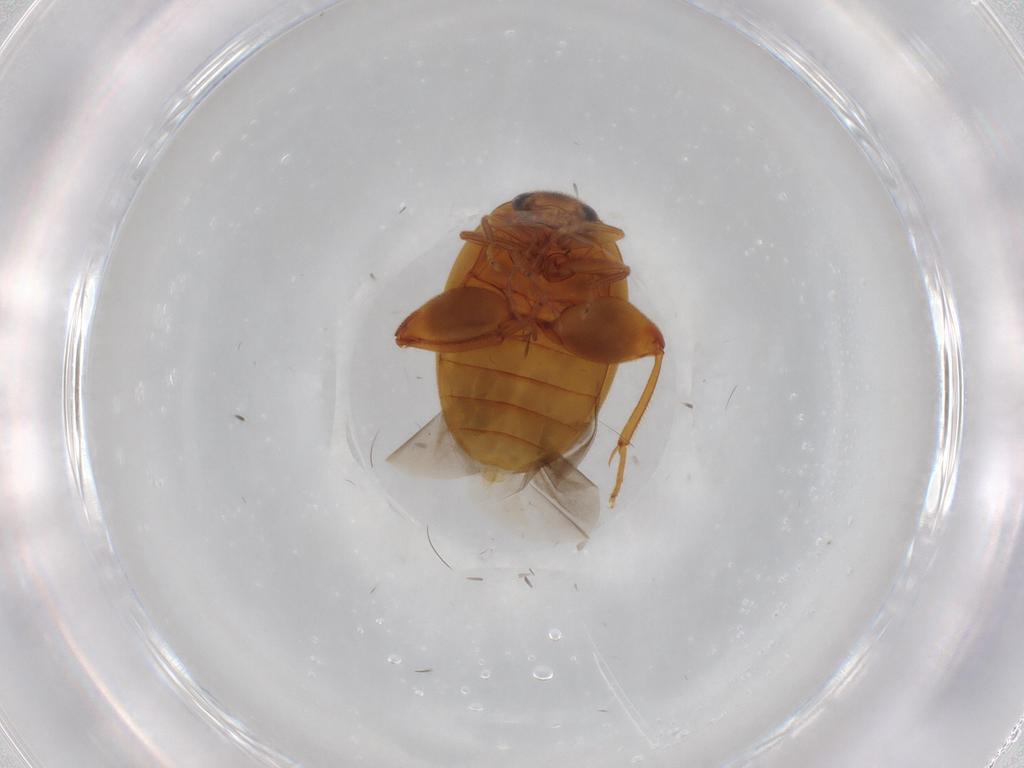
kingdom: Animalia
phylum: Arthropoda
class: Insecta
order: Coleoptera
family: Scirtidae
